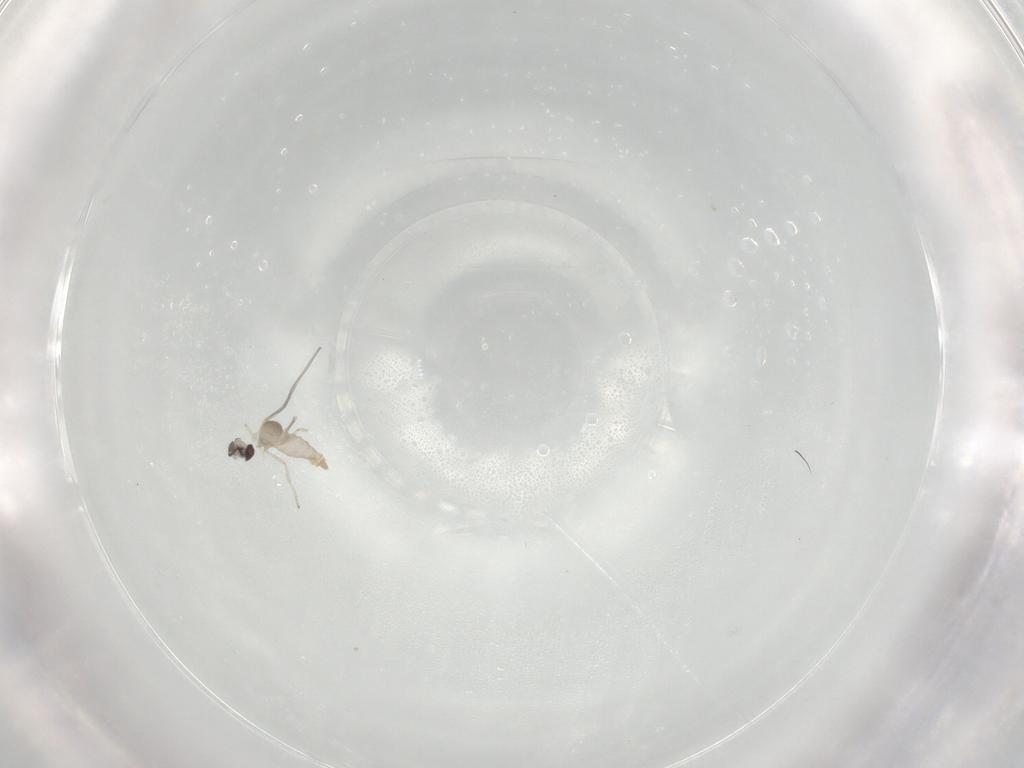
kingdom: Animalia
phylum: Arthropoda
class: Insecta
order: Diptera
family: Cecidomyiidae
